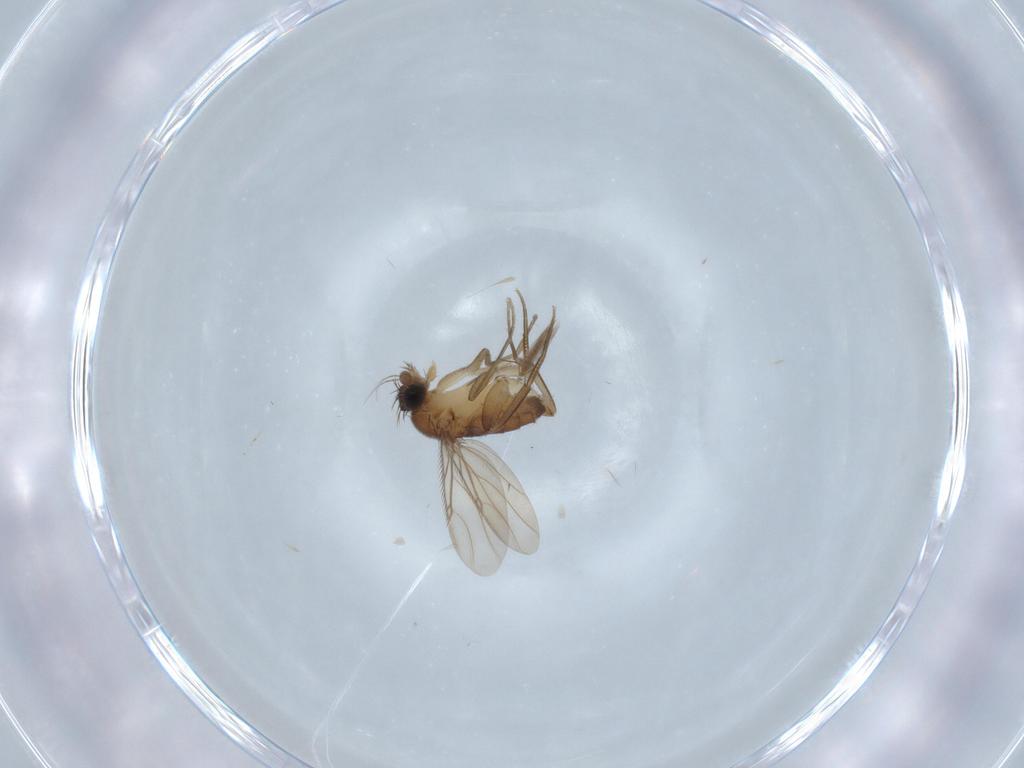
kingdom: Animalia
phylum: Arthropoda
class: Insecta
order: Diptera
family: Phoridae
